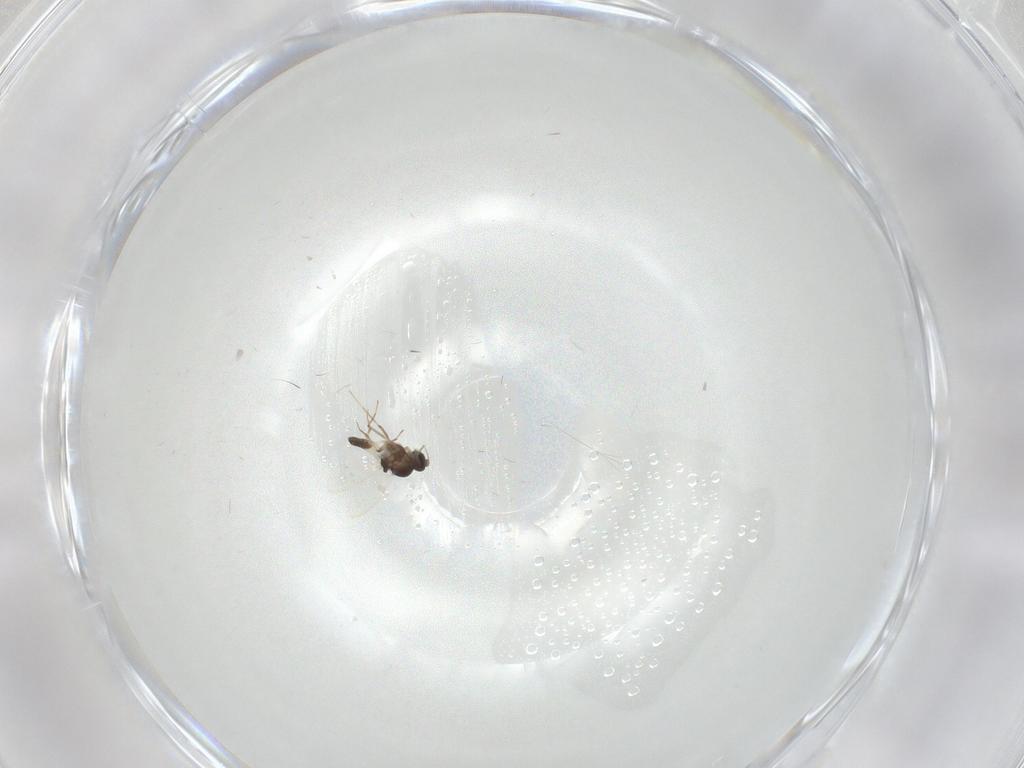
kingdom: Animalia
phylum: Arthropoda
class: Insecta
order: Diptera
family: Ceratopogonidae
